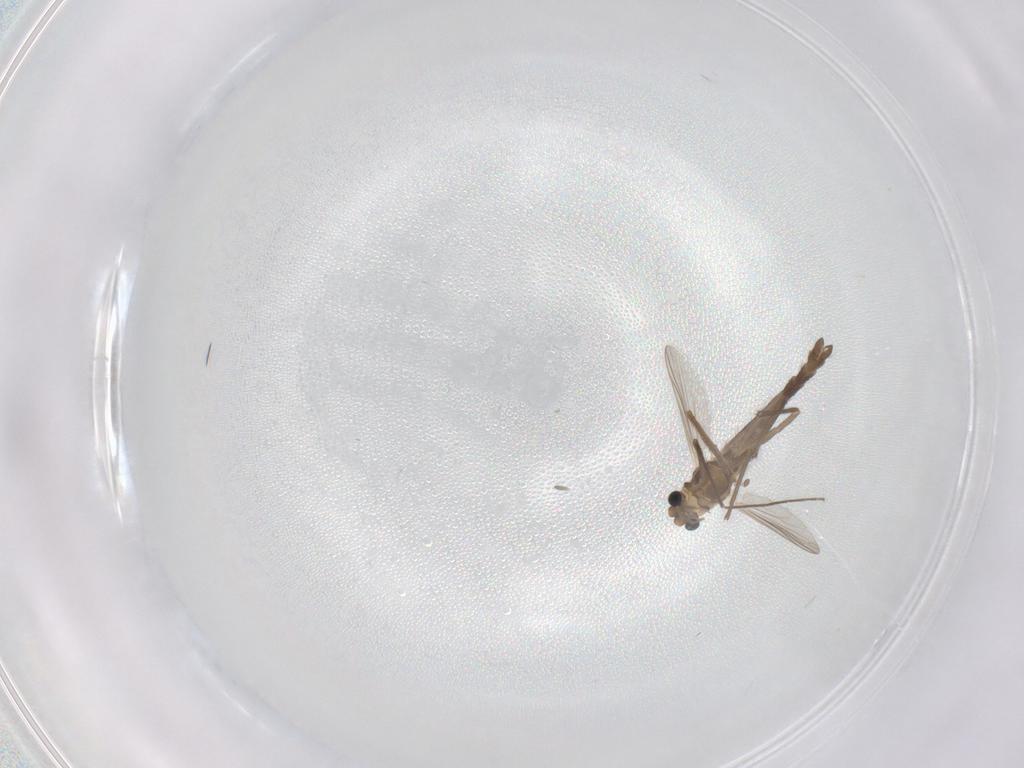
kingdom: Animalia
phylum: Arthropoda
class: Insecta
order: Diptera
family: Chironomidae
